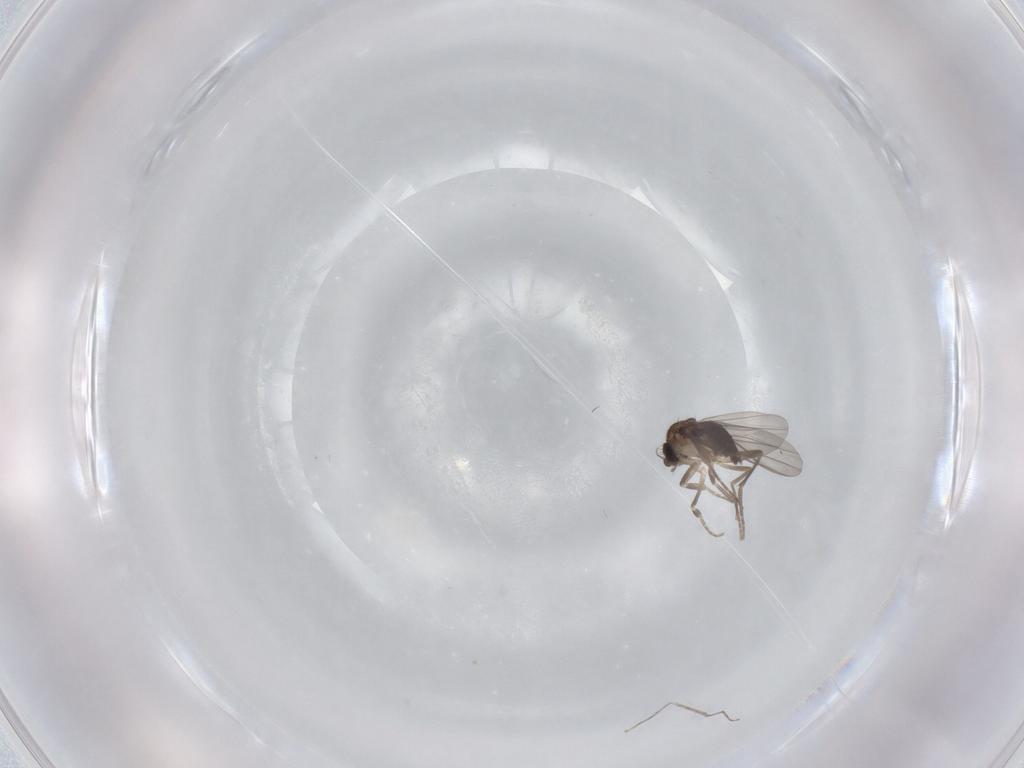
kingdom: Animalia
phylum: Arthropoda
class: Insecta
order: Diptera
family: Cecidomyiidae
